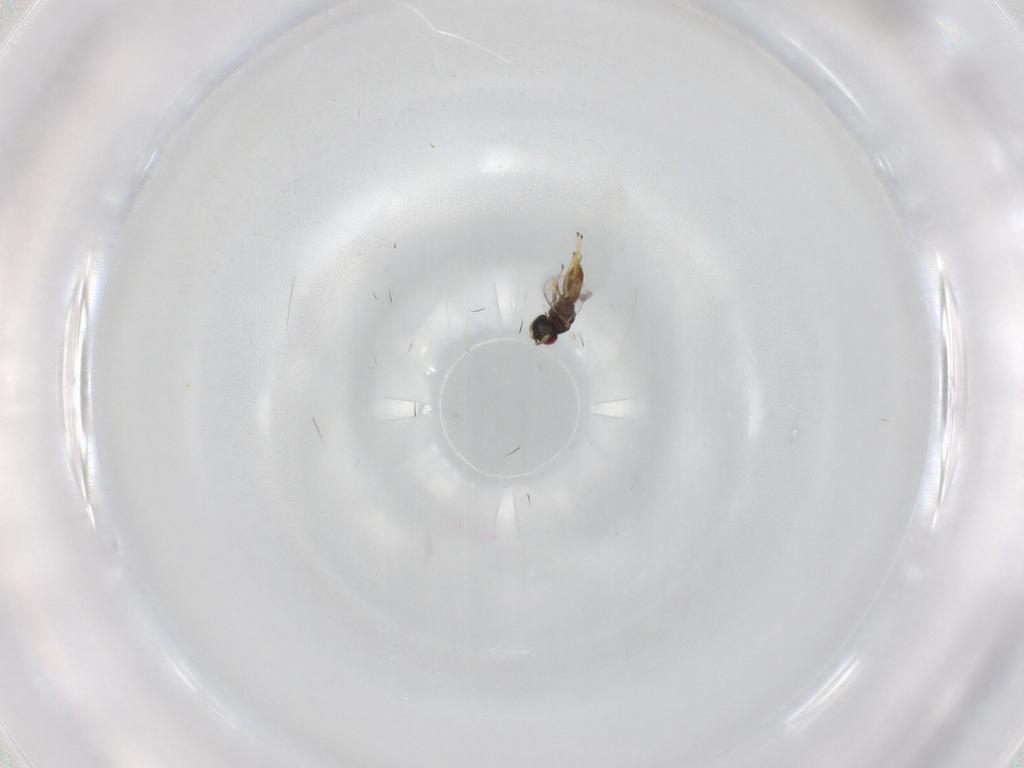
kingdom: Animalia
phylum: Arthropoda
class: Insecta
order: Hymenoptera
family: Pteromalidae
